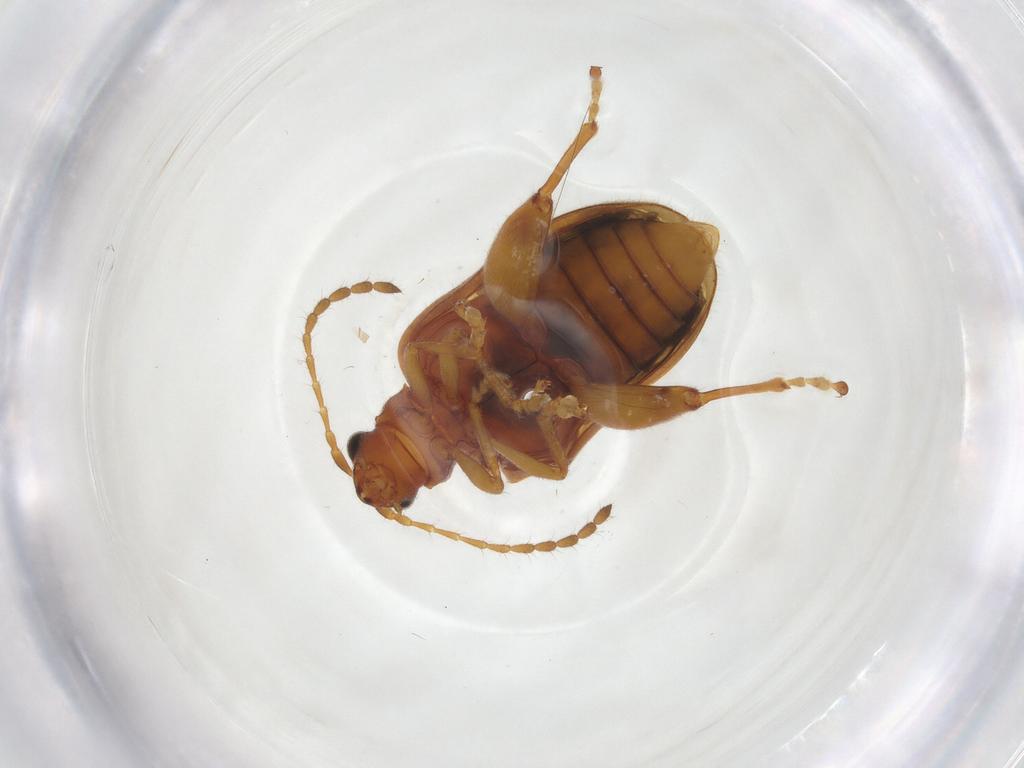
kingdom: Animalia
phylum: Arthropoda
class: Insecta
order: Coleoptera
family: Chrysomelidae
